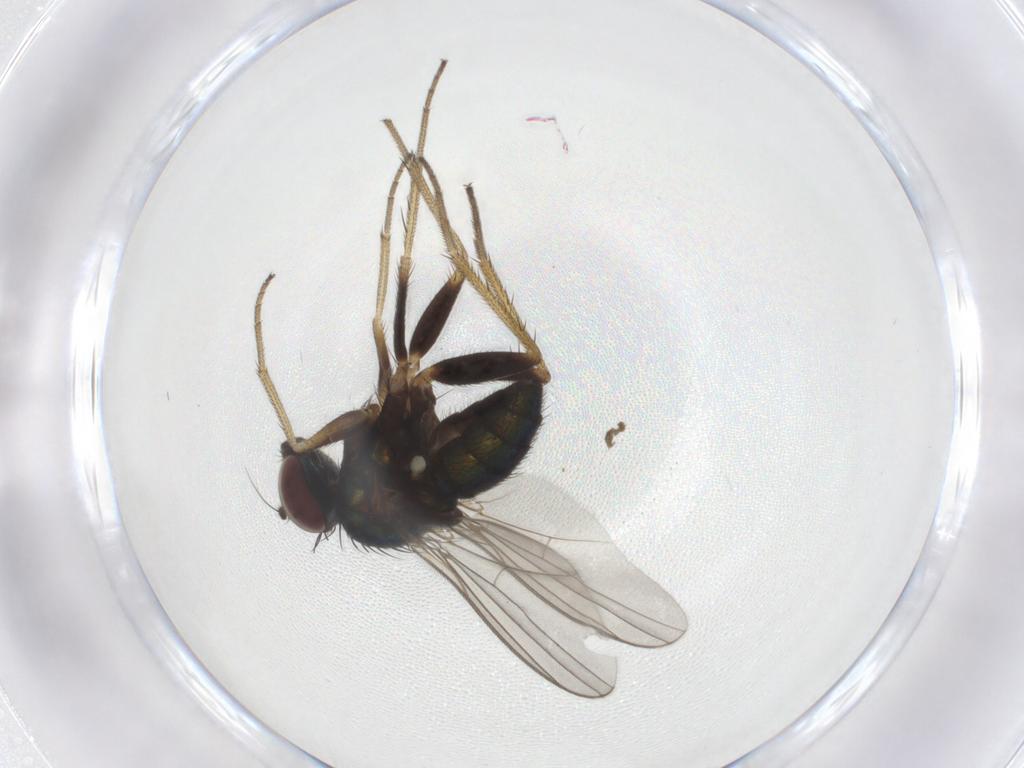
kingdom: Animalia
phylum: Arthropoda
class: Insecta
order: Diptera
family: Dolichopodidae
